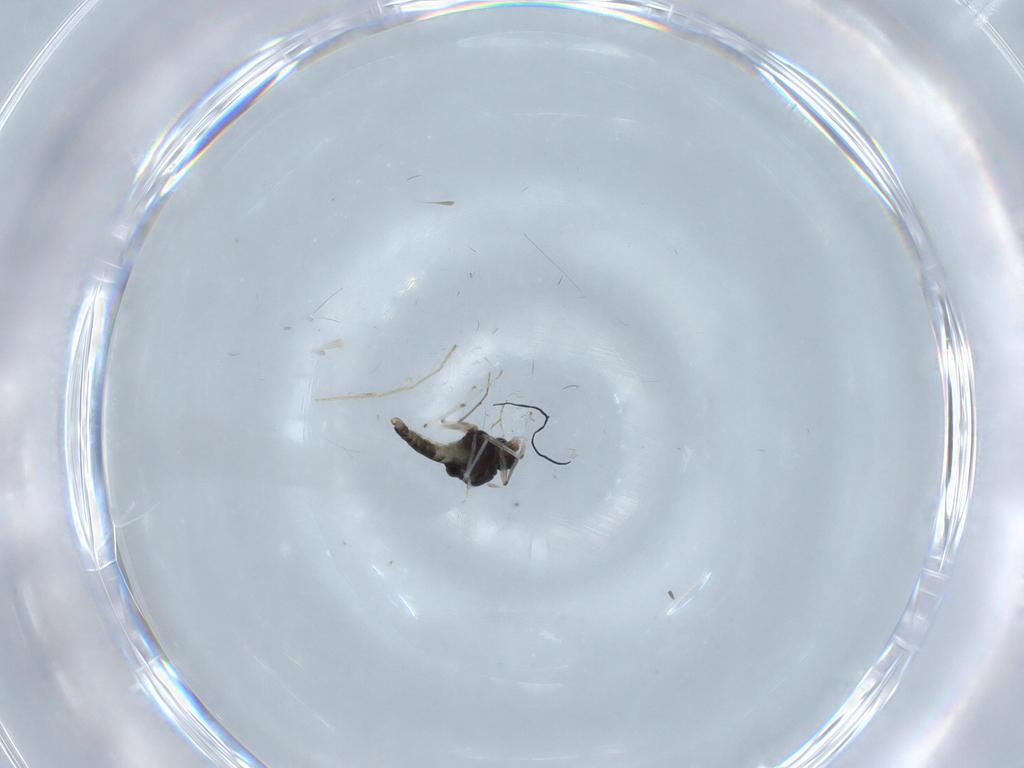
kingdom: Animalia
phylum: Arthropoda
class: Insecta
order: Diptera
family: Chironomidae
